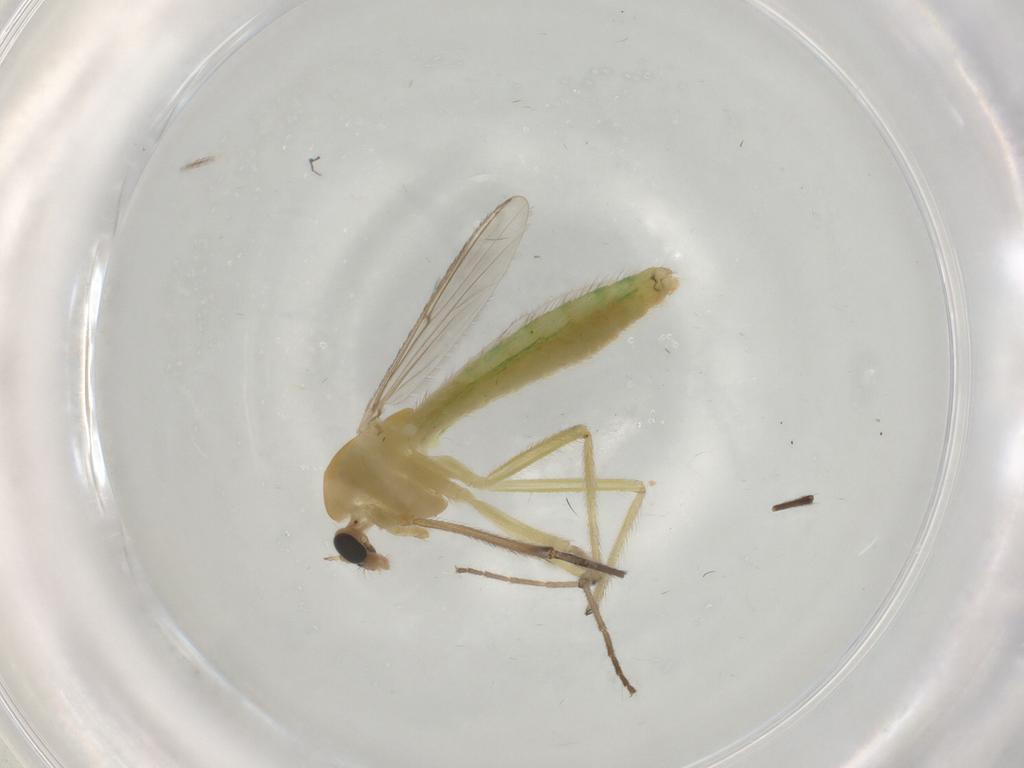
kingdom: Animalia
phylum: Arthropoda
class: Insecta
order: Diptera
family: Chironomidae
